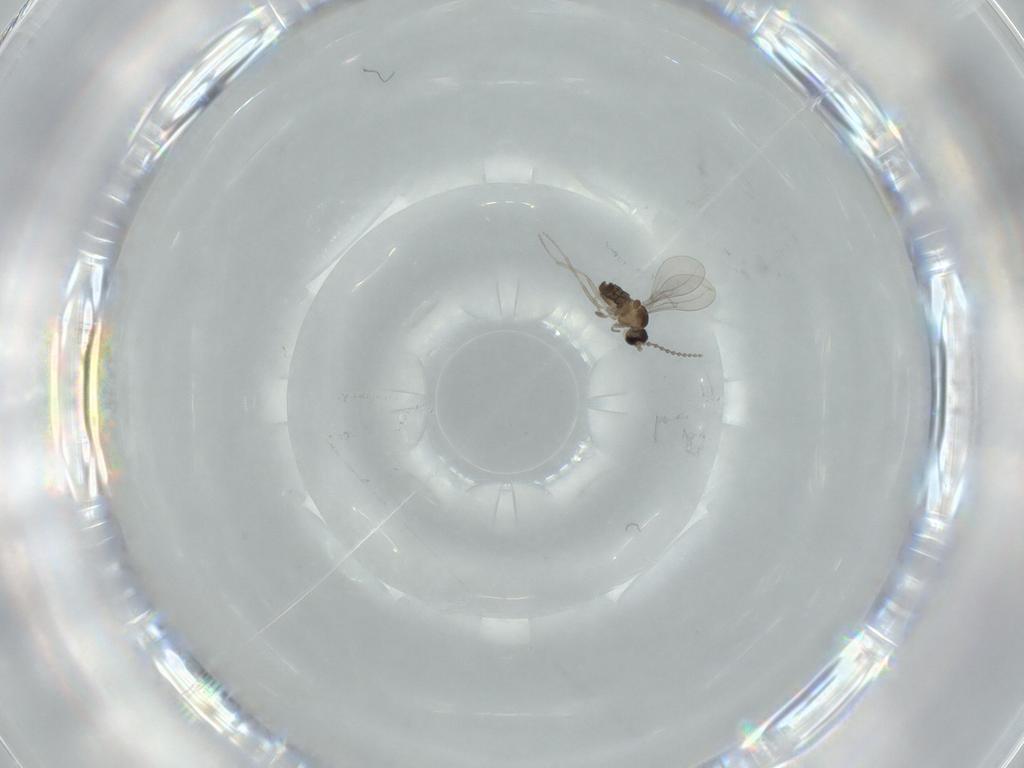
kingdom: Animalia
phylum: Arthropoda
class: Insecta
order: Diptera
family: Cecidomyiidae
